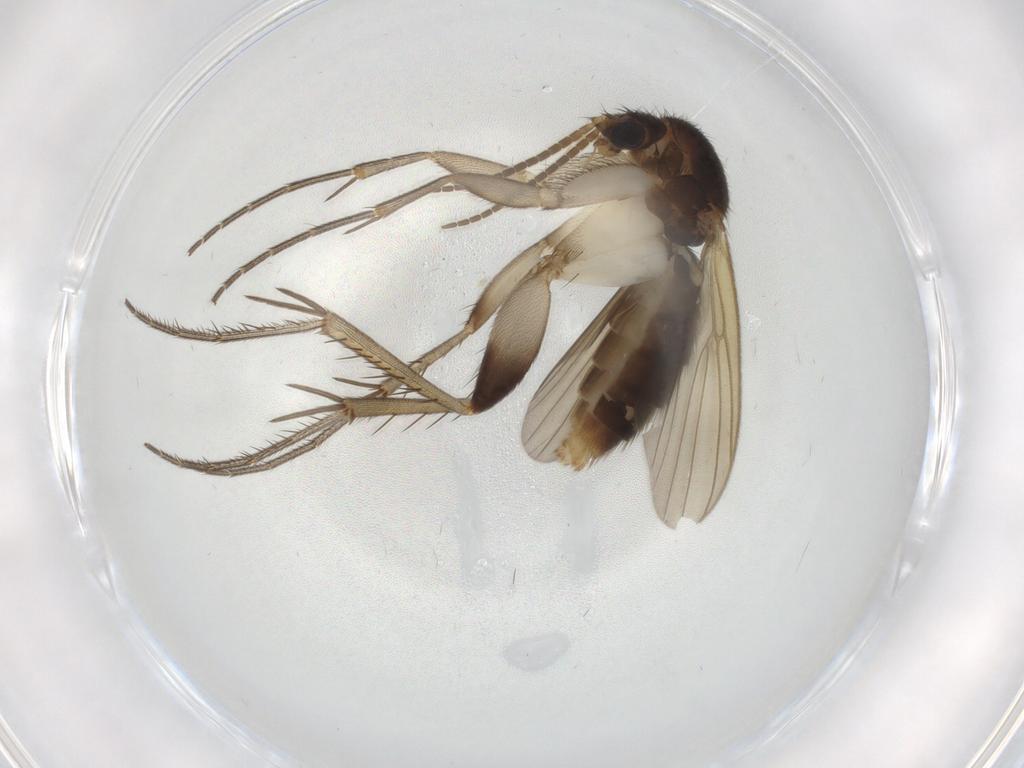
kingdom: Animalia
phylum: Arthropoda
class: Insecta
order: Diptera
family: Mycetophilidae
